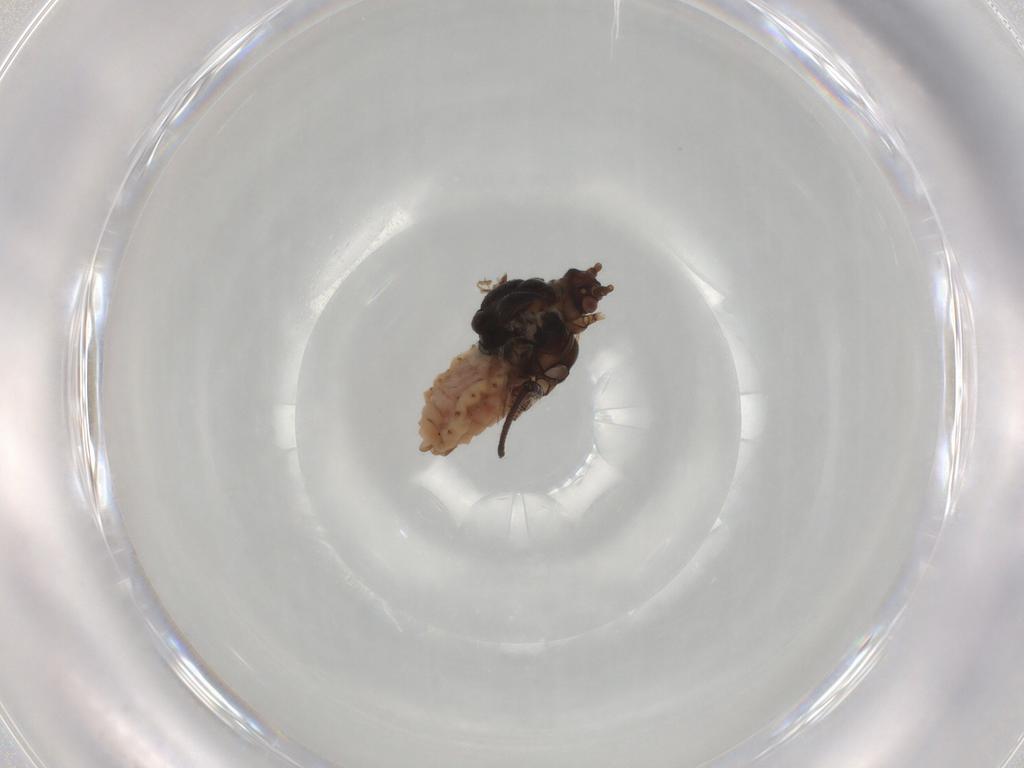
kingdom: Animalia
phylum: Arthropoda
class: Insecta
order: Hemiptera
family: Aphididae
